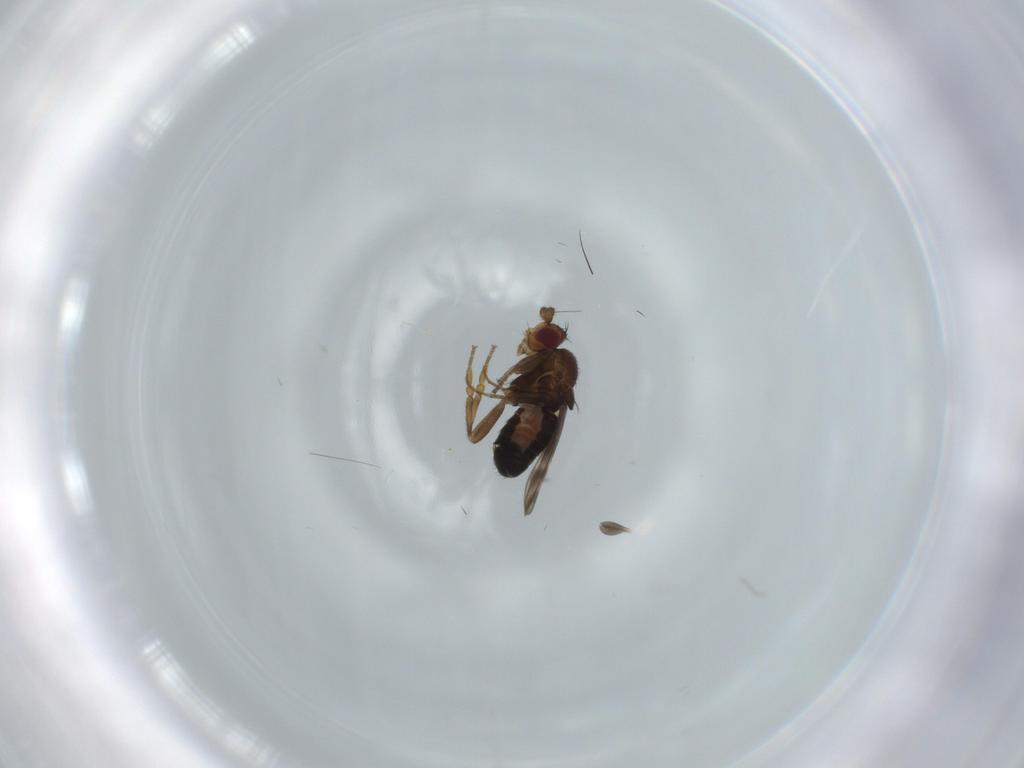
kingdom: Animalia
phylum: Arthropoda
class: Insecta
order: Diptera
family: Sphaeroceridae
